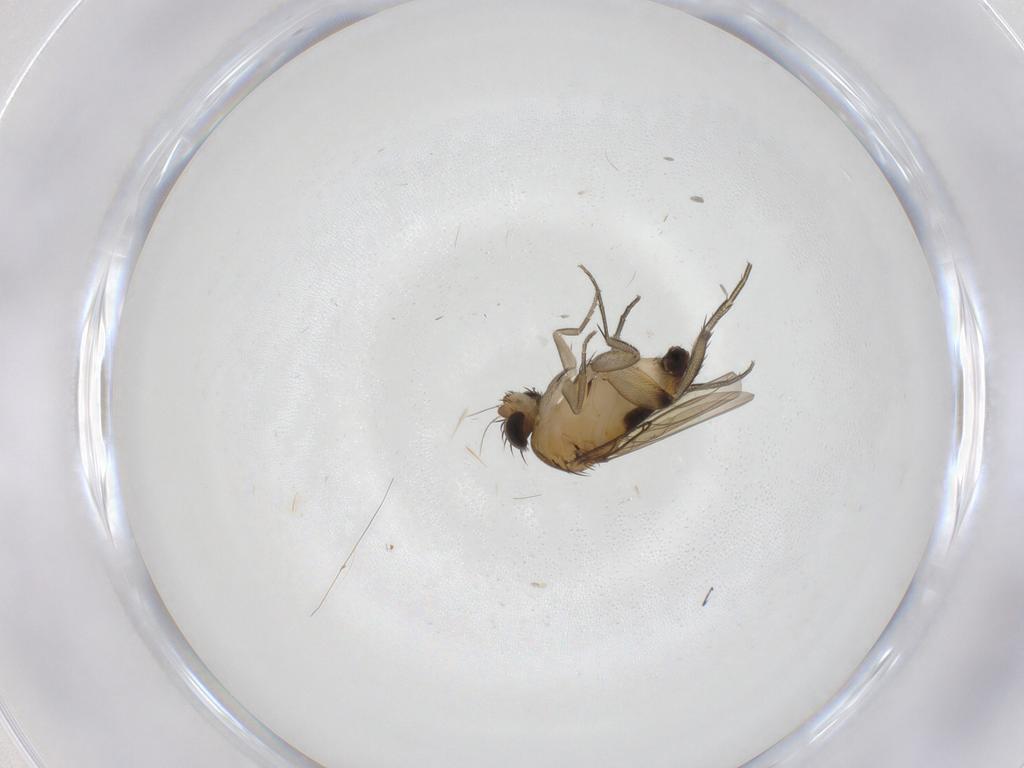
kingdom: Animalia
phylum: Arthropoda
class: Insecta
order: Diptera
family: Phoridae
